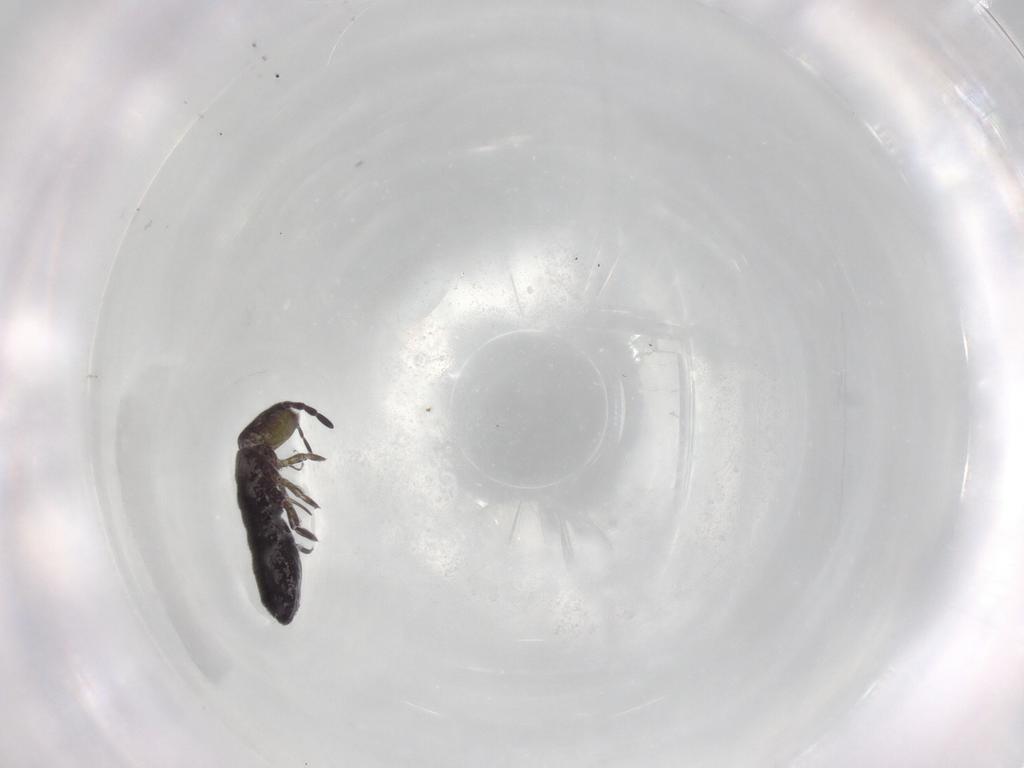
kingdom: Animalia
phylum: Arthropoda
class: Collembola
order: Entomobryomorpha
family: Isotomidae
